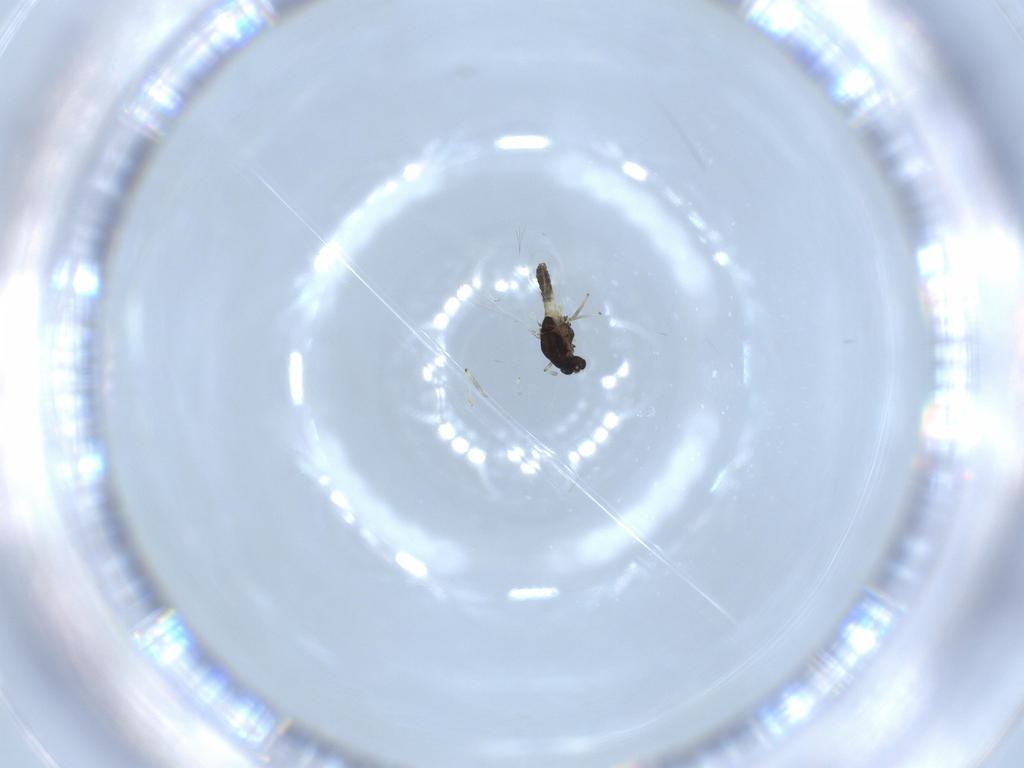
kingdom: Animalia
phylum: Arthropoda
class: Insecta
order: Diptera
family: Chironomidae
